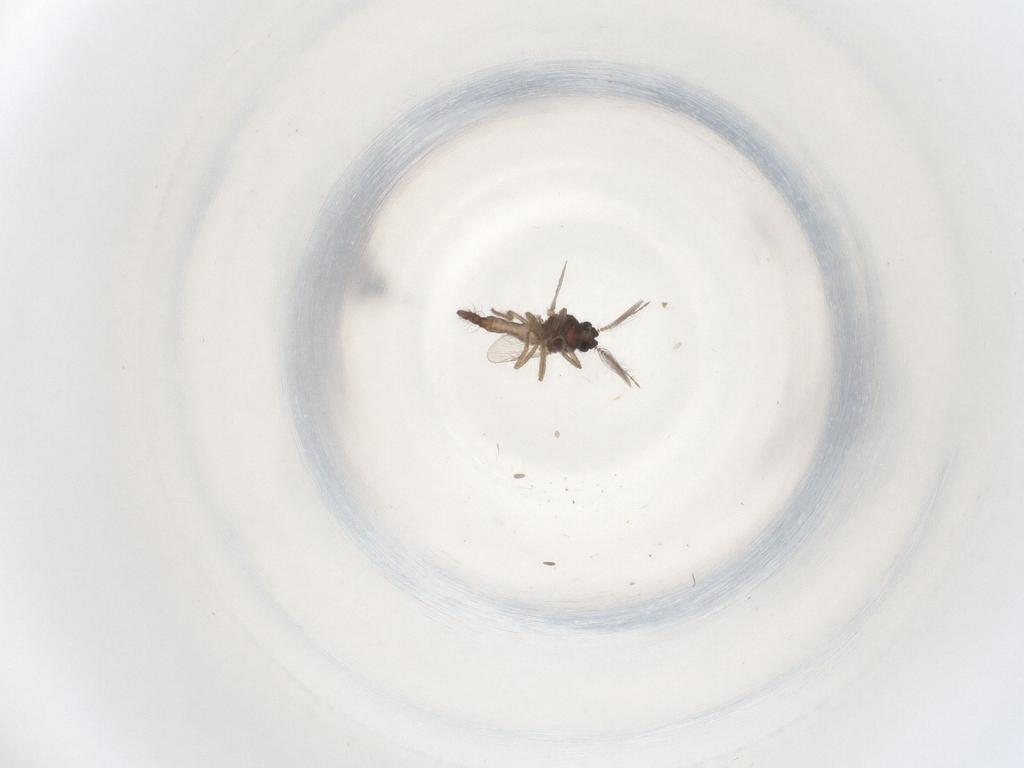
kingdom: Animalia
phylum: Arthropoda
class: Insecta
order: Diptera
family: Ceratopogonidae
